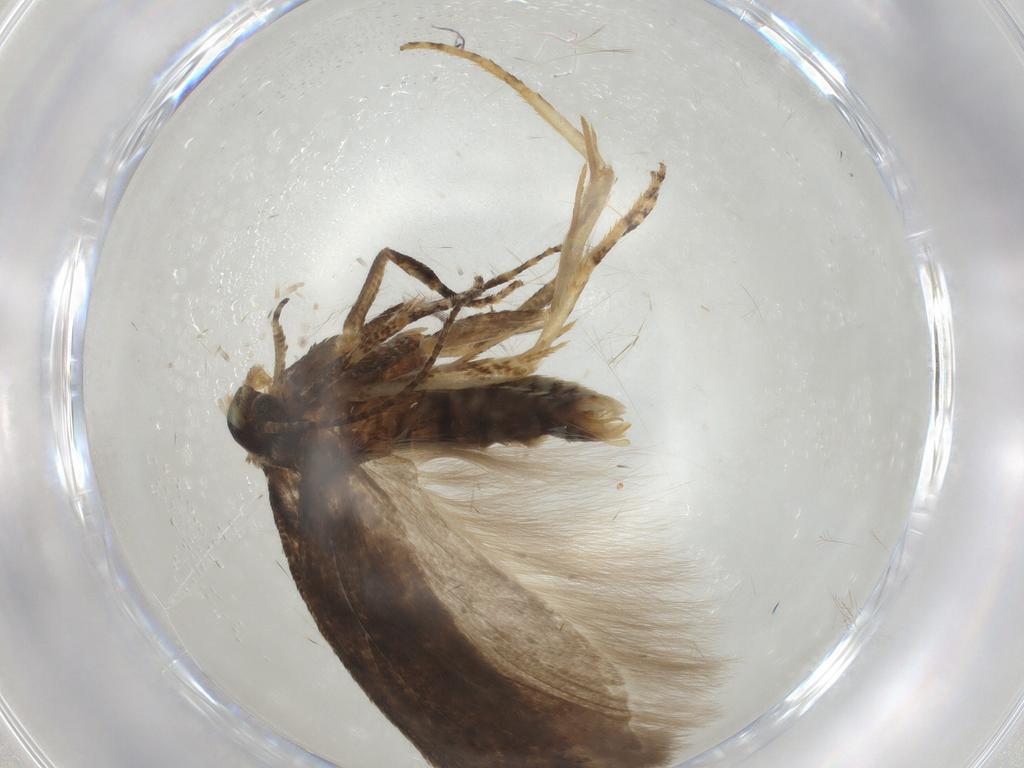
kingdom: Animalia
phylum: Arthropoda
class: Insecta
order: Lepidoptera
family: Gelechiidae
